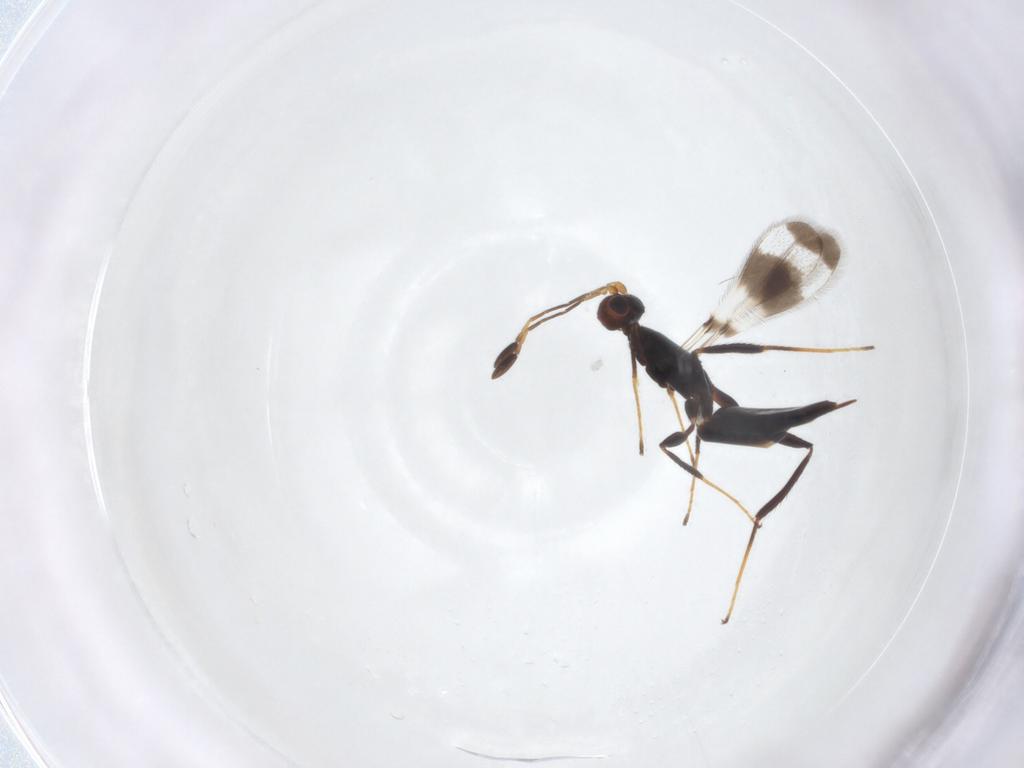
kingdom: Animalia
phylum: Arthropoda
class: Insecta
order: Hymenoptera
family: Mymaridae
